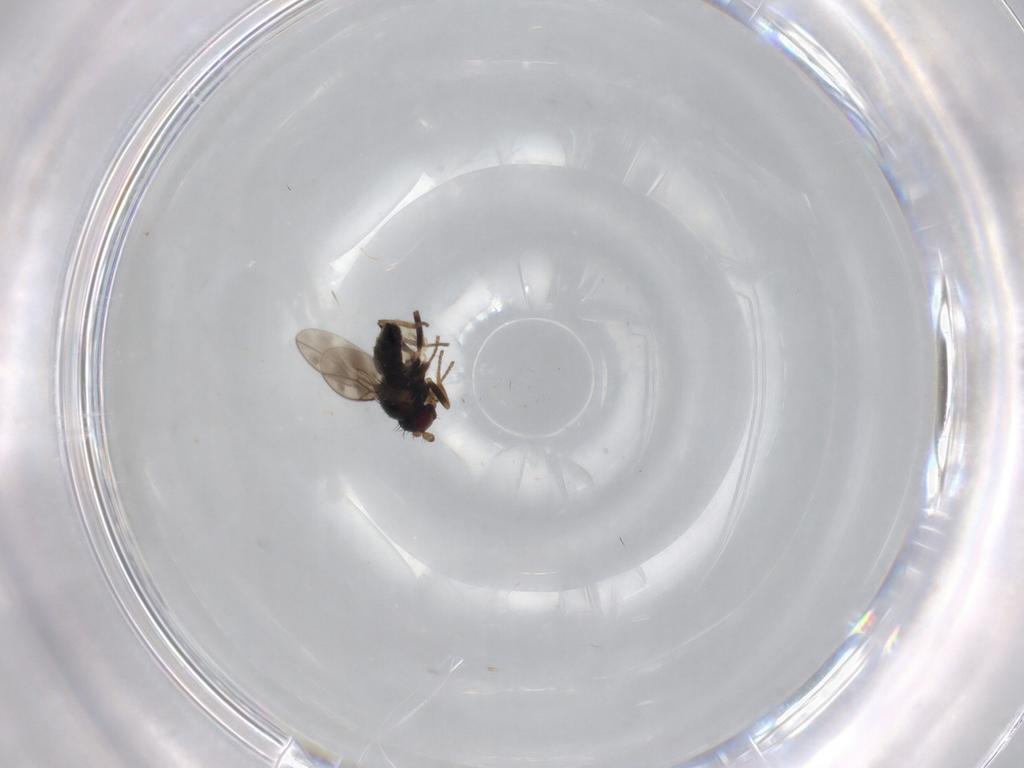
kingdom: Animalia
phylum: Arthropoda
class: Insecta
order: Diptera
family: Sphaeroceridae
